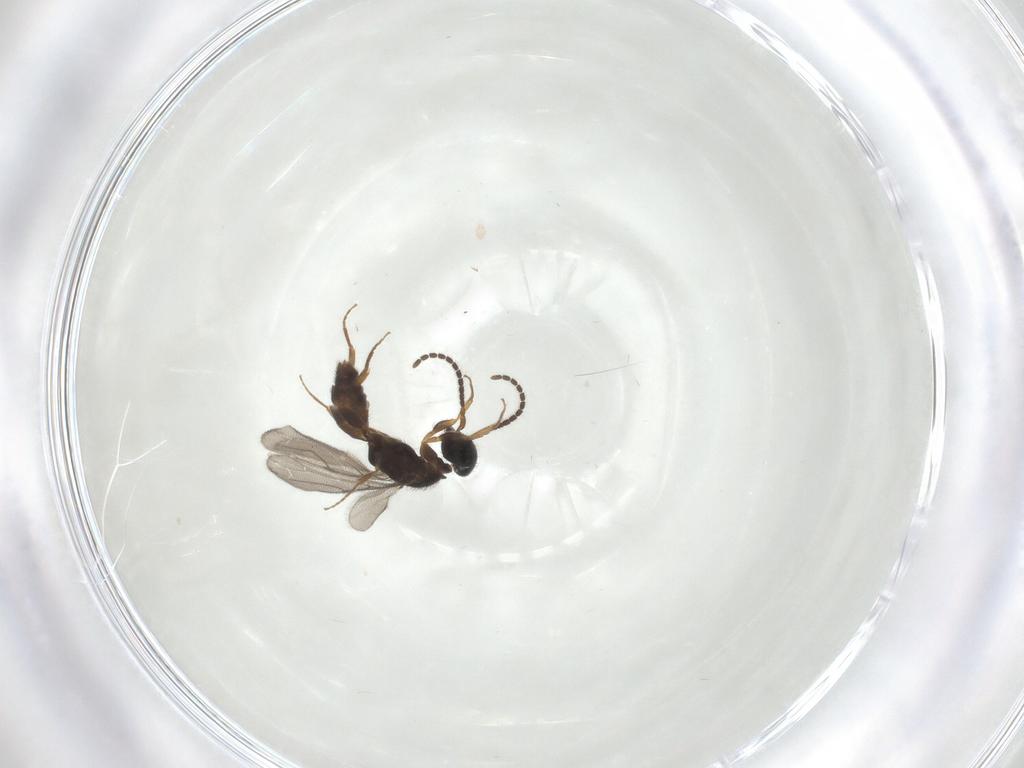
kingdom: Animalia
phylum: Arthropoda
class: Insecta
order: Hymenoptera
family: Bethylidae
